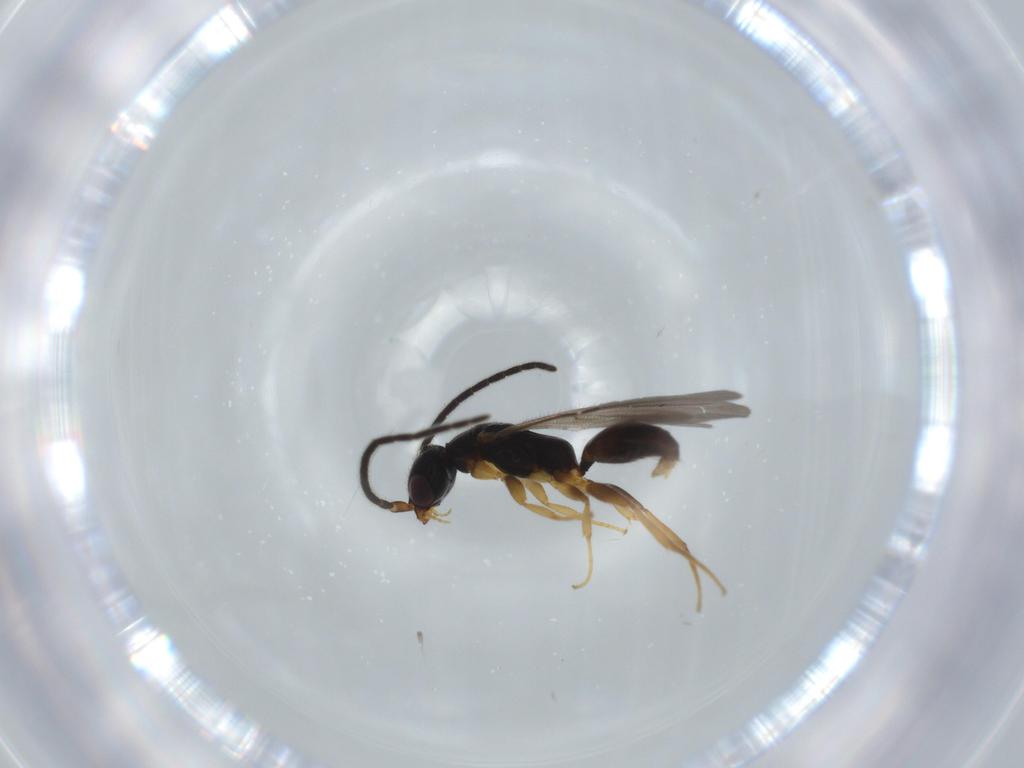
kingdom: Animalia
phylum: Arthropoda
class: Insecta
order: Hymenoptera
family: Bethylidae
